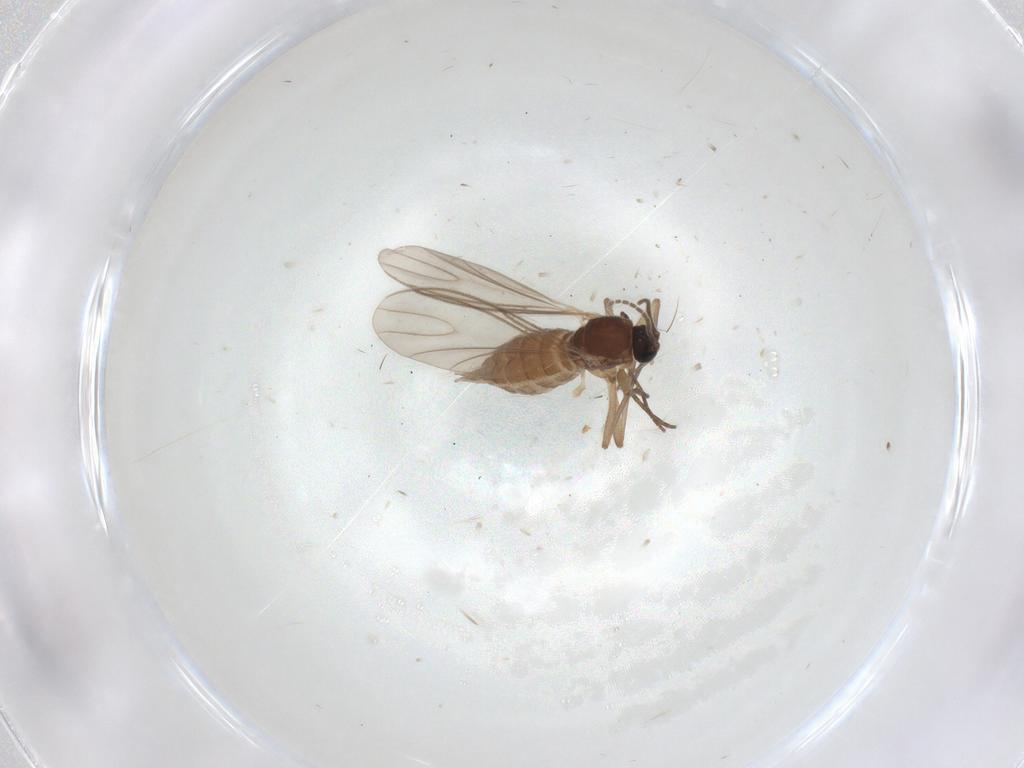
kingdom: Animalia
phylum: Arthropoda
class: Insecta
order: Diptera
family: Sciaridae
